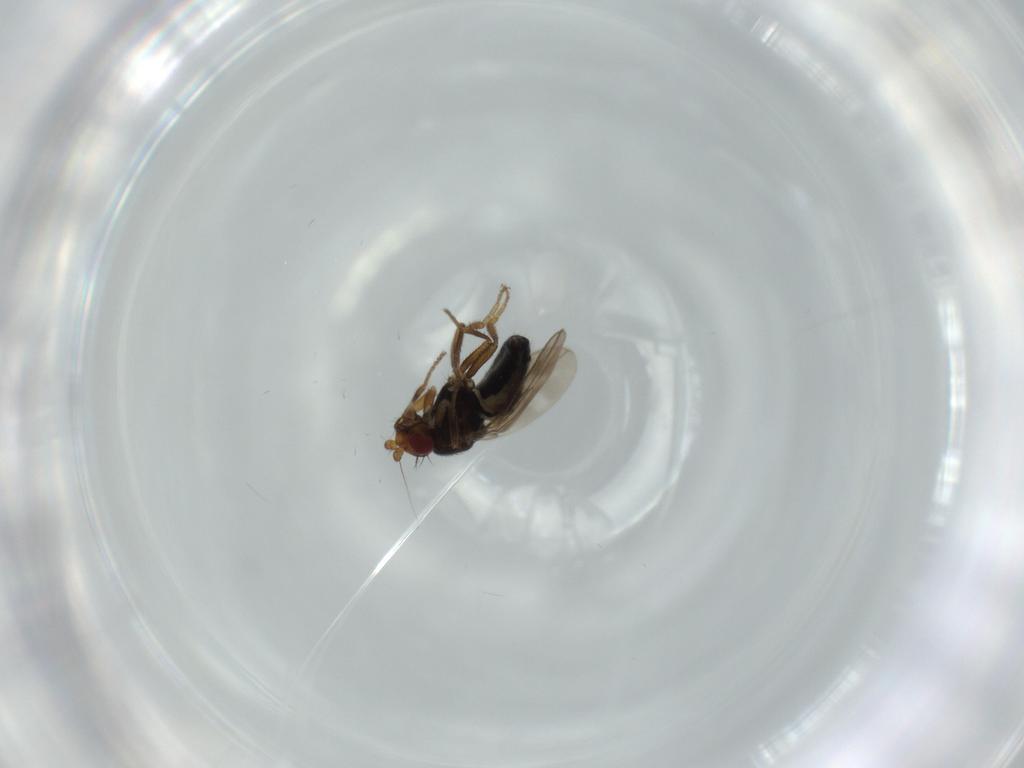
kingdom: Animalia
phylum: Arthropoda
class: Insecta
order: Diptera
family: Sphaeroceridae
